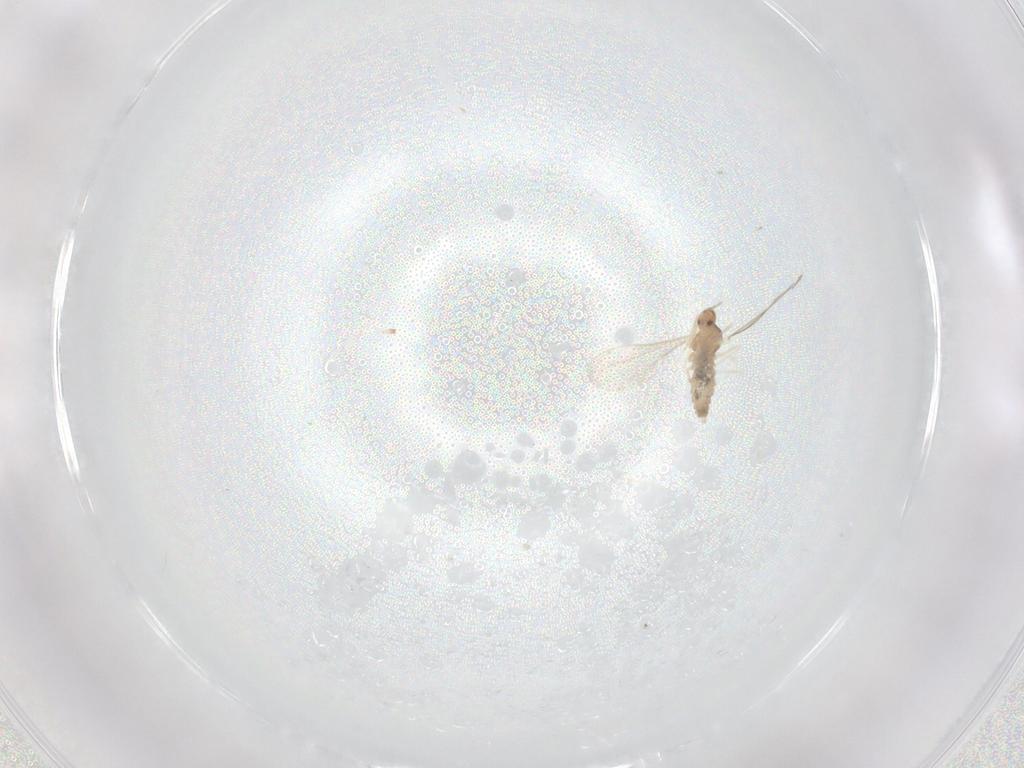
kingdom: Animalia
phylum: Arthropoda
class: Insecta
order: Diptera
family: Cecidomyiidae
